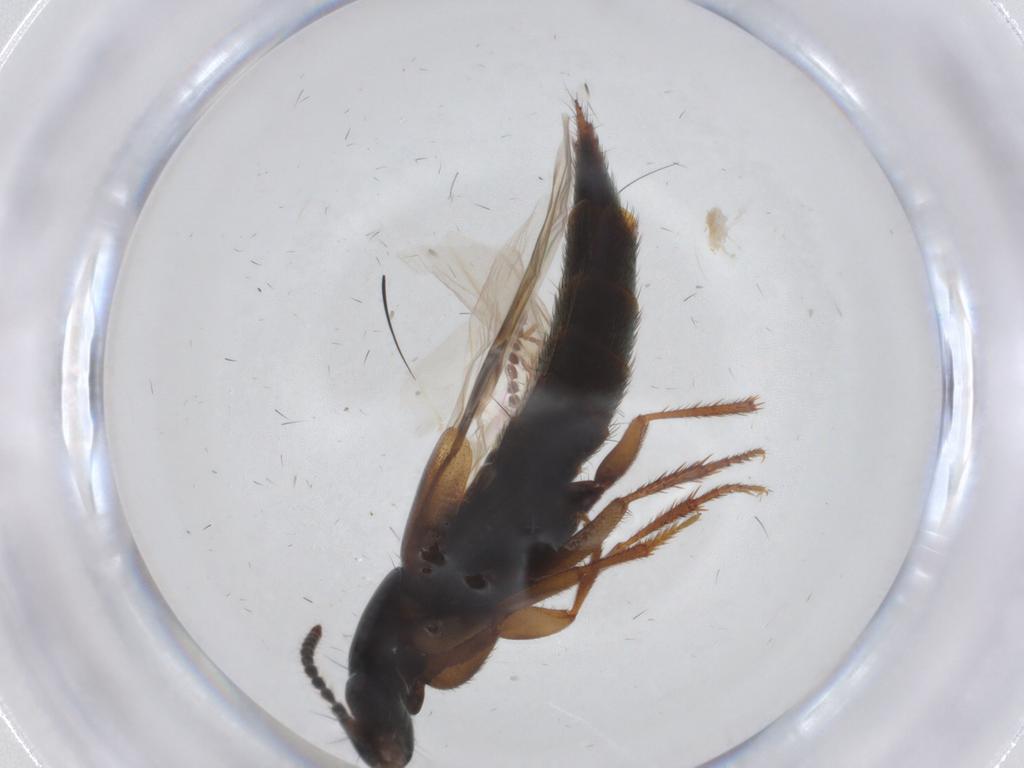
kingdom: Animalia
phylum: Arthropoda
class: Insecta
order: Coleoptera
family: Staphylinidae
